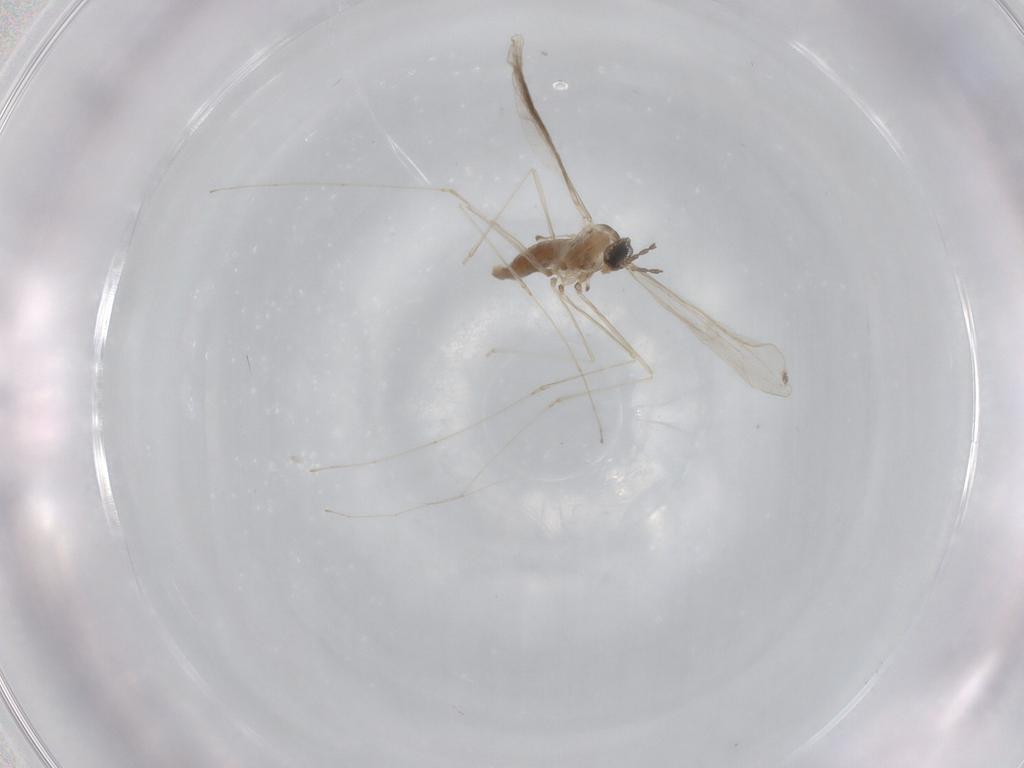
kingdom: Animalia
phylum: Arthropoda
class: Insecta
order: Diptera
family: Cecidomyiidae
